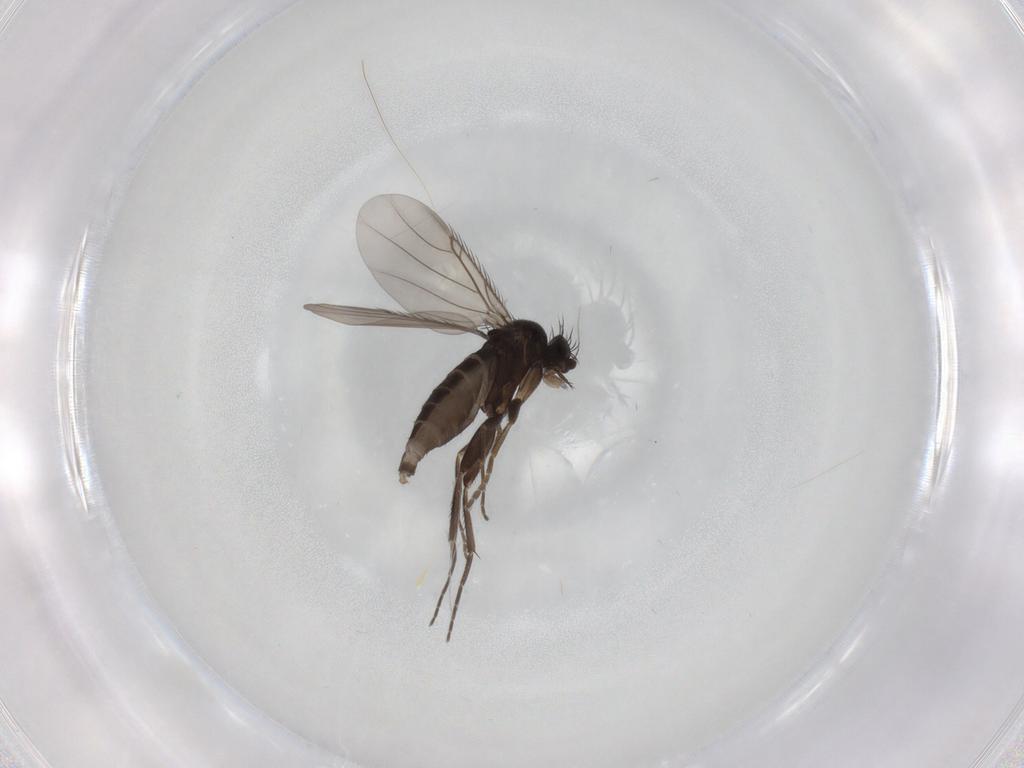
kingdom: Animalia
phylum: Arthropoda
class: Insecta
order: Diptera
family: Phoridae
